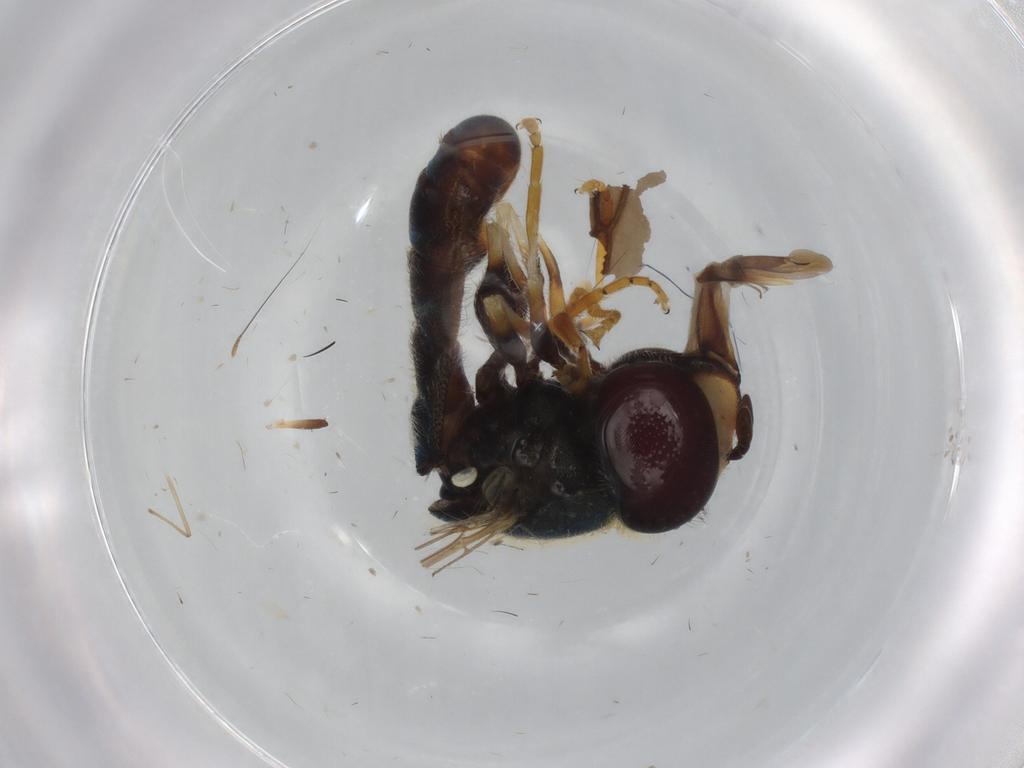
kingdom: Animalia
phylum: Arthropoda
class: Insecta
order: Diptera
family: Syrphidae
